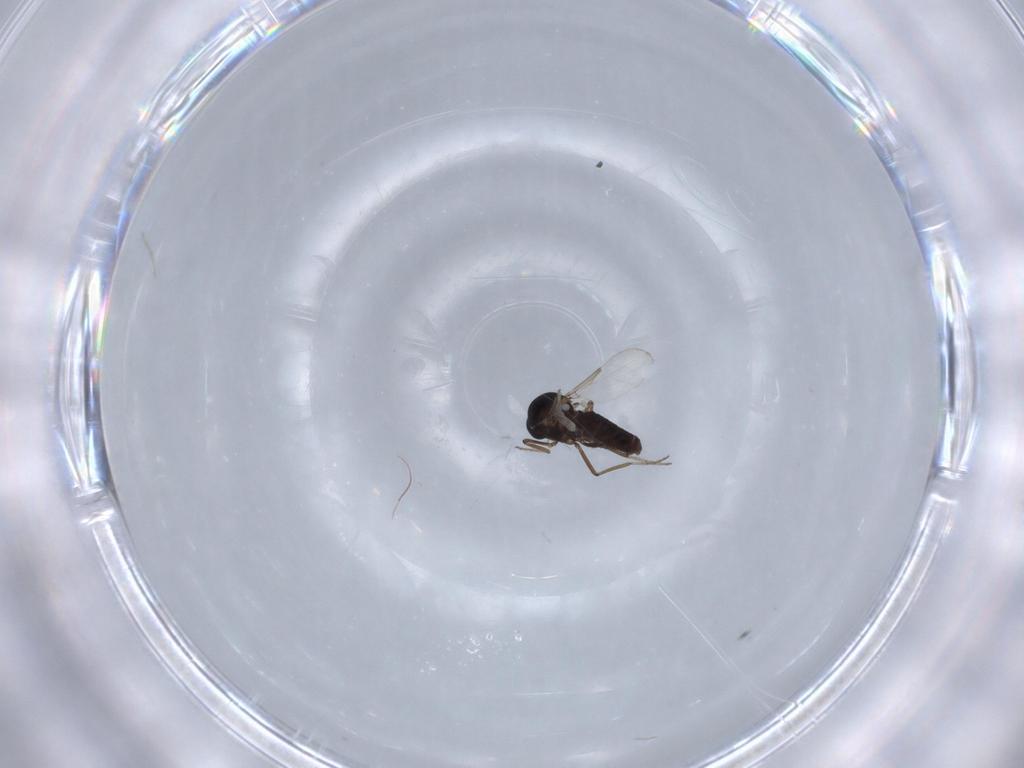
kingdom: Animalia
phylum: Arthropoda
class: Insecta
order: Diptera
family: Ceratopogonidae
